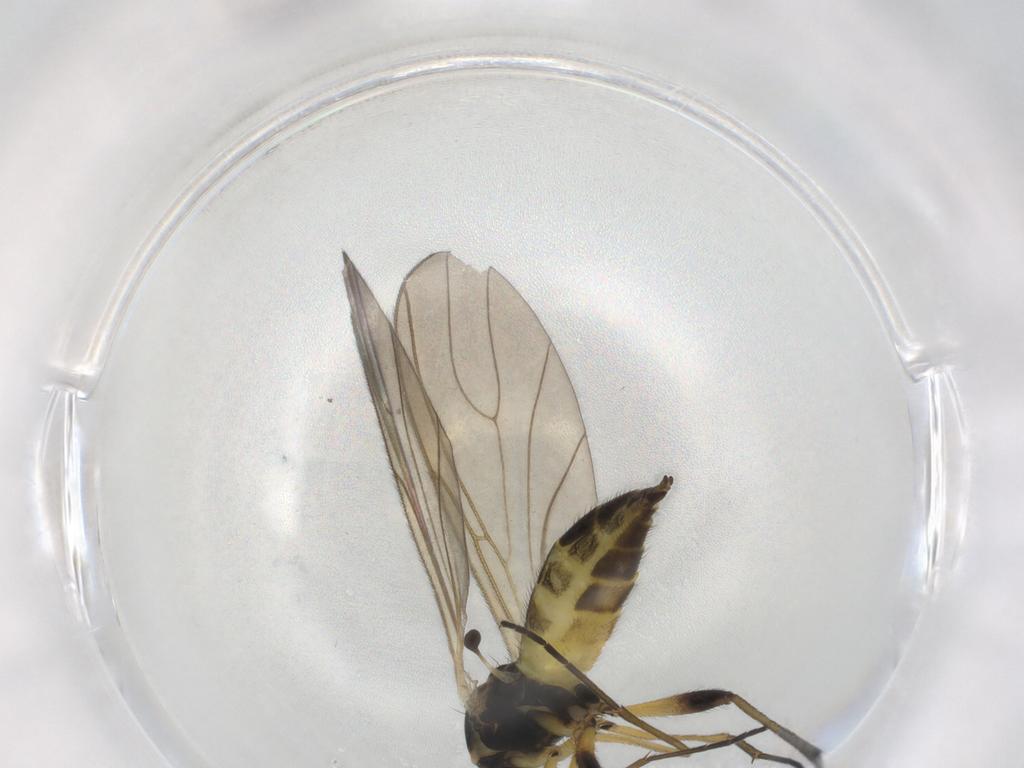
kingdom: Animalia
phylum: Arthropoda
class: Insecta
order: Diptera
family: Sciaridae
